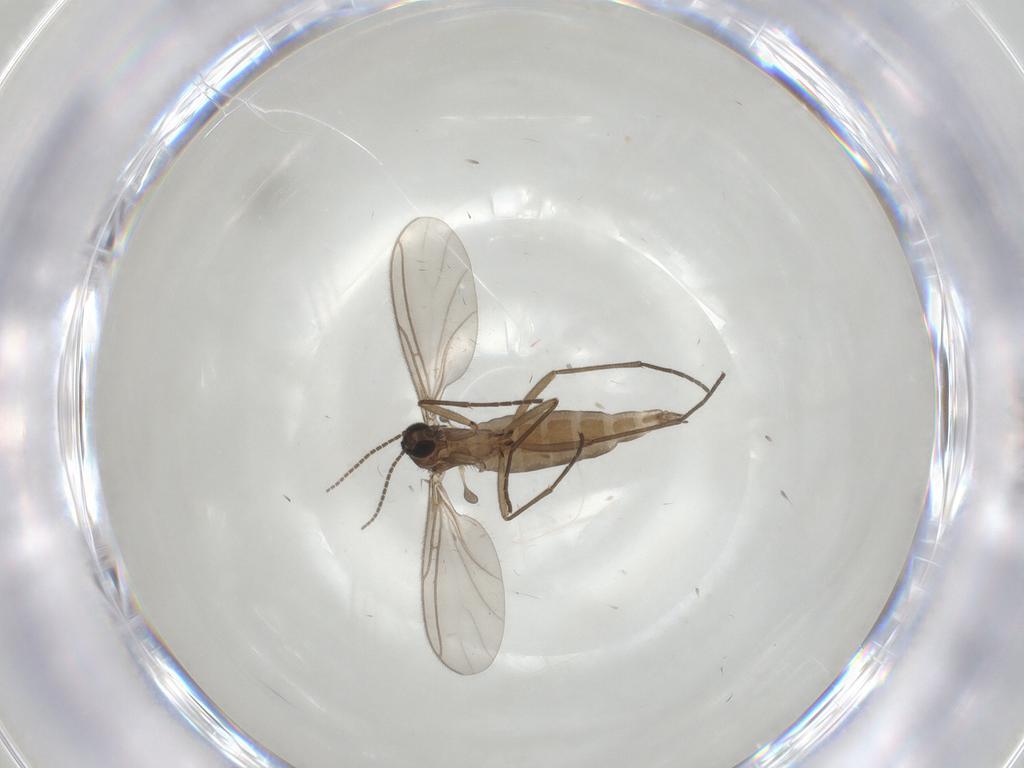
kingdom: Animalia
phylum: Arthropoda
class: Insecta
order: Diptera
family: Sciaridae
